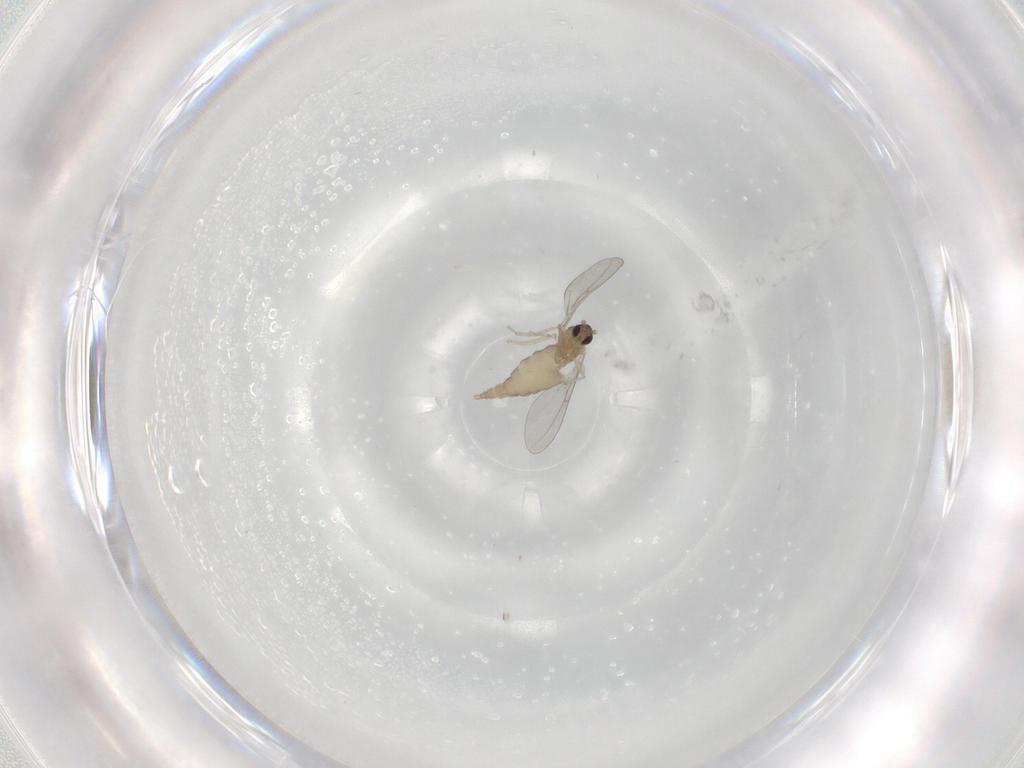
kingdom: Animalia
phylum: Arthropoda
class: Insecta
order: Diptera
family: Cecidomyiidae
